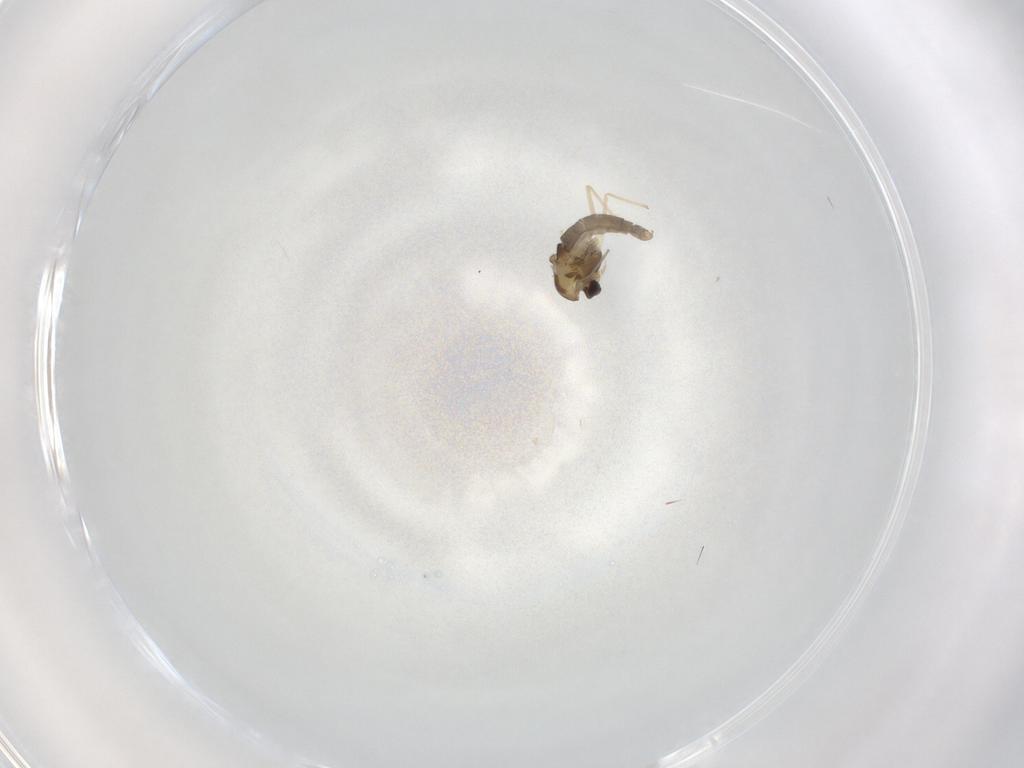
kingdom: Animalia
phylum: Arthropoda
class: Insecta
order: Diptera
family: Chironomidae
